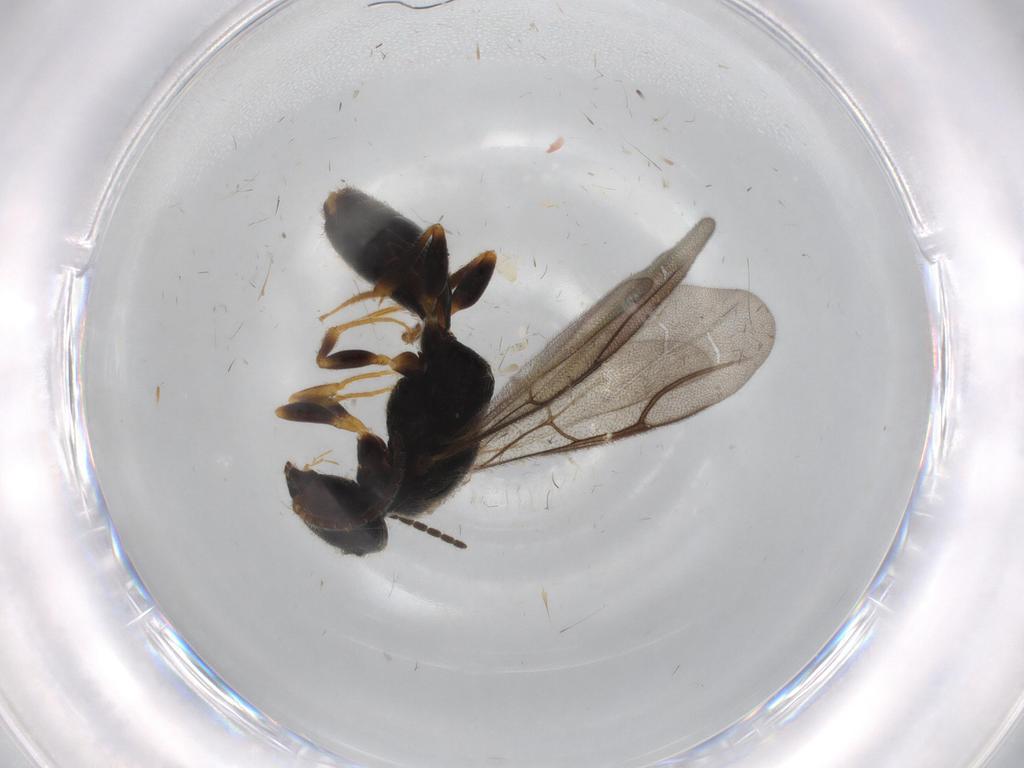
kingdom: Animalia
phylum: Arthropoda
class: Insecta
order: Hymenoptera
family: Bethylidae
